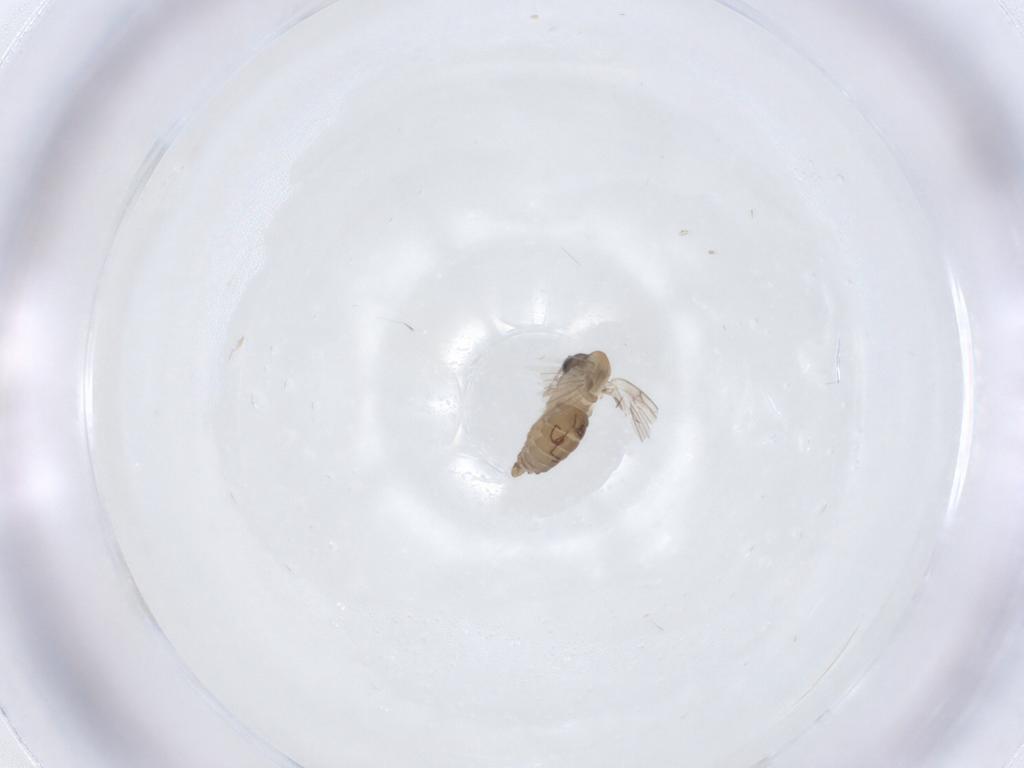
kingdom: Animalia
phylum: Arthropoda
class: Insecta
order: Diptera
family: Psychodidae
